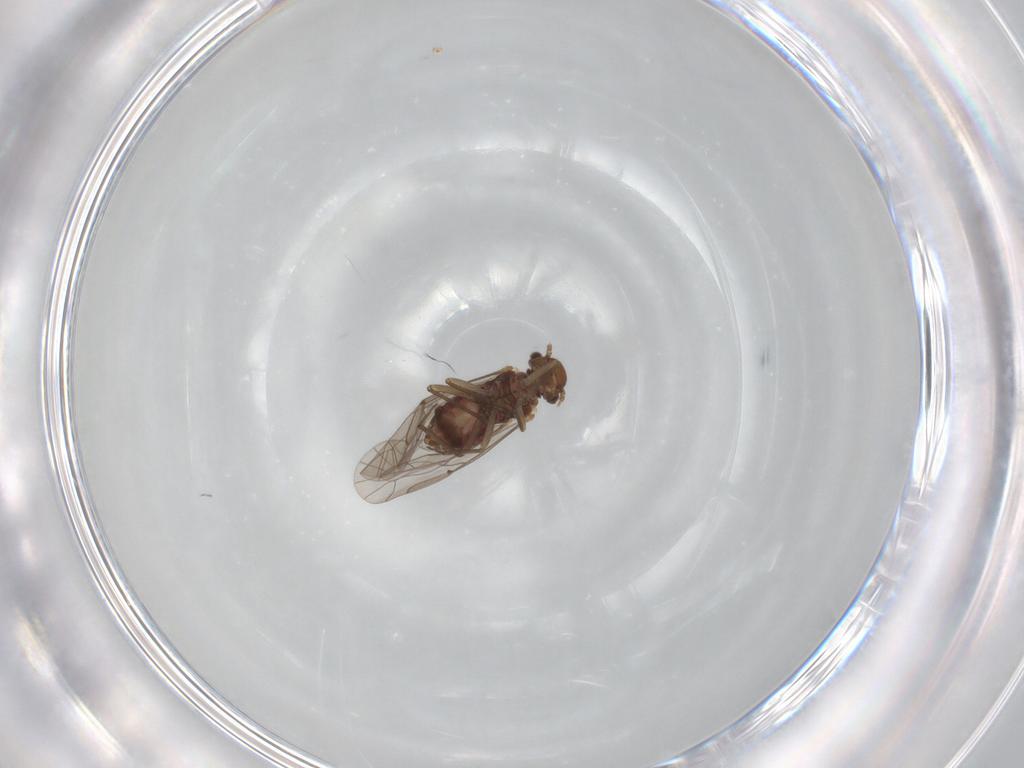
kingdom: Animalia
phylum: Arthropoda
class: Insecta
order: Psocodea
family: Lachesillidae
